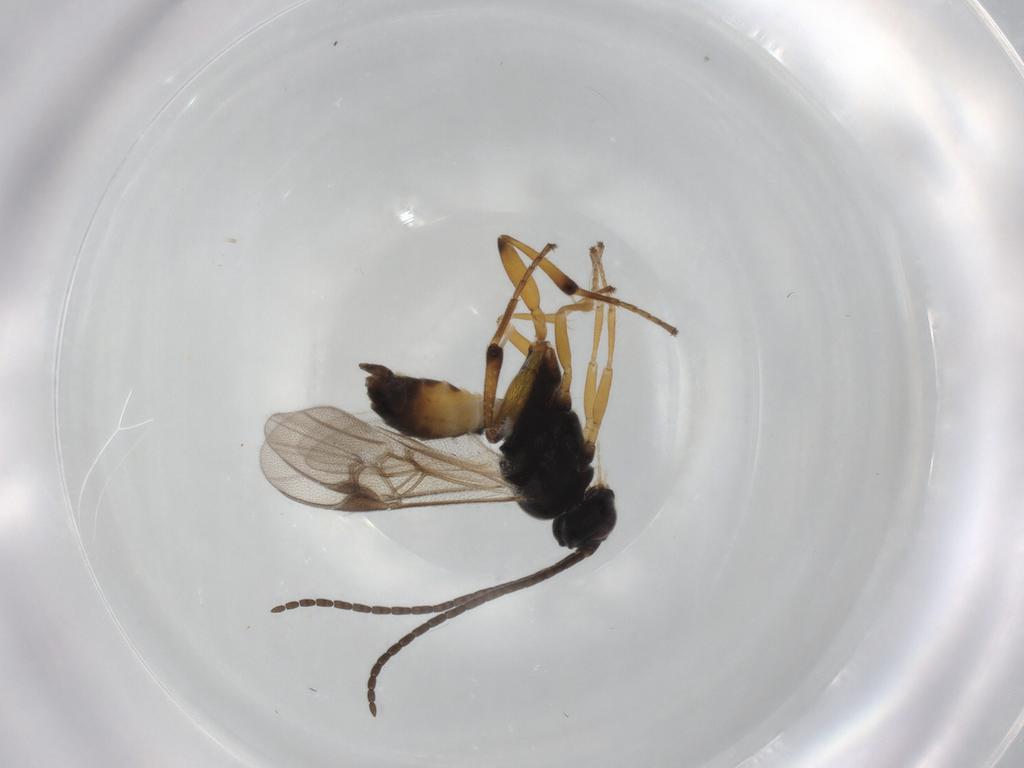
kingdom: Animalia
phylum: Arthropoda
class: Insecta
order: Hymenoptera
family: Braconidae
